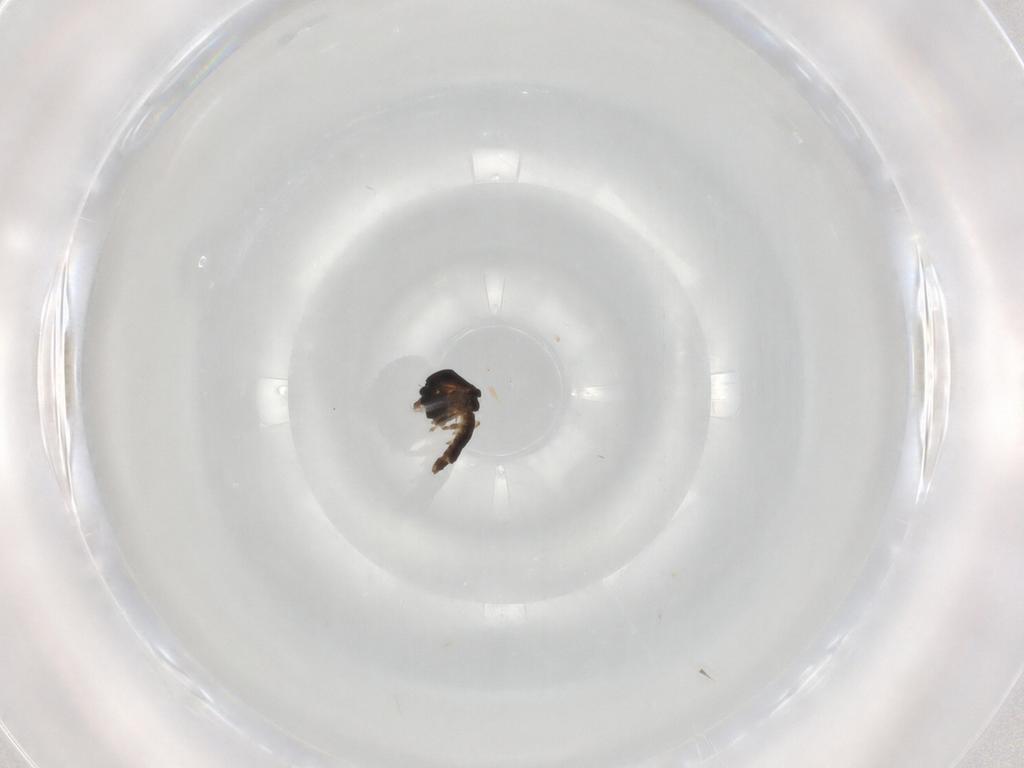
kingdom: Animalia
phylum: Arthropoda
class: Insecta
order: Diptera
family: Chironomidae
